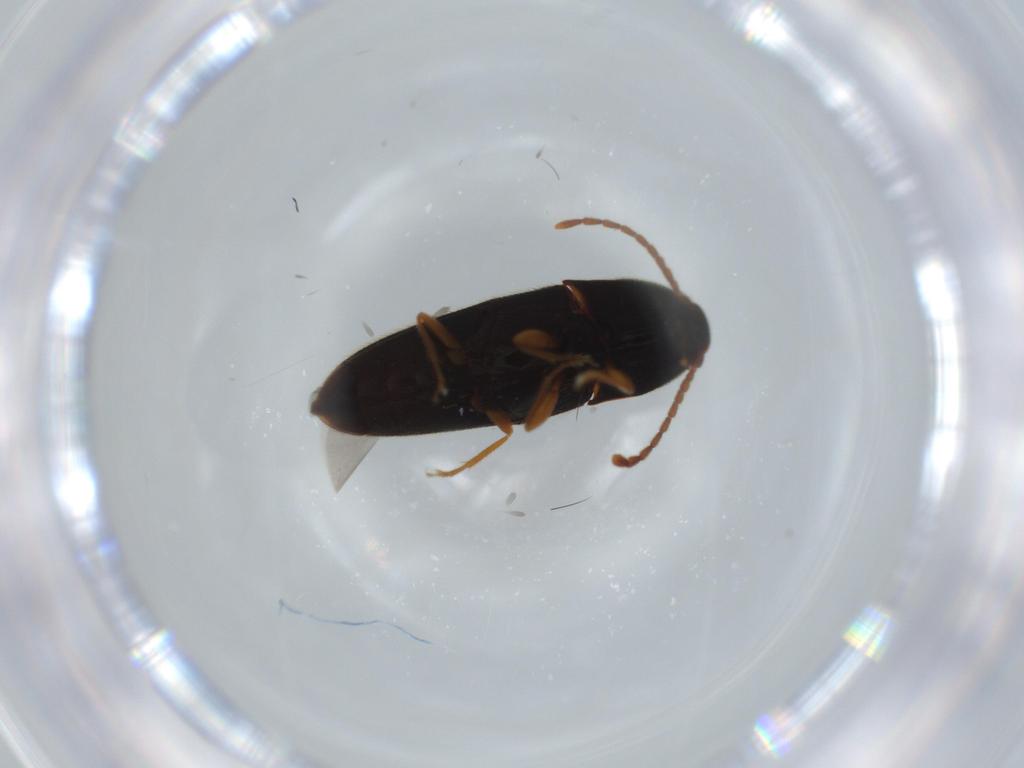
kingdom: Animalia
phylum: Arthropoda
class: Insecta
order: Coleoptera
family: Elateridae
